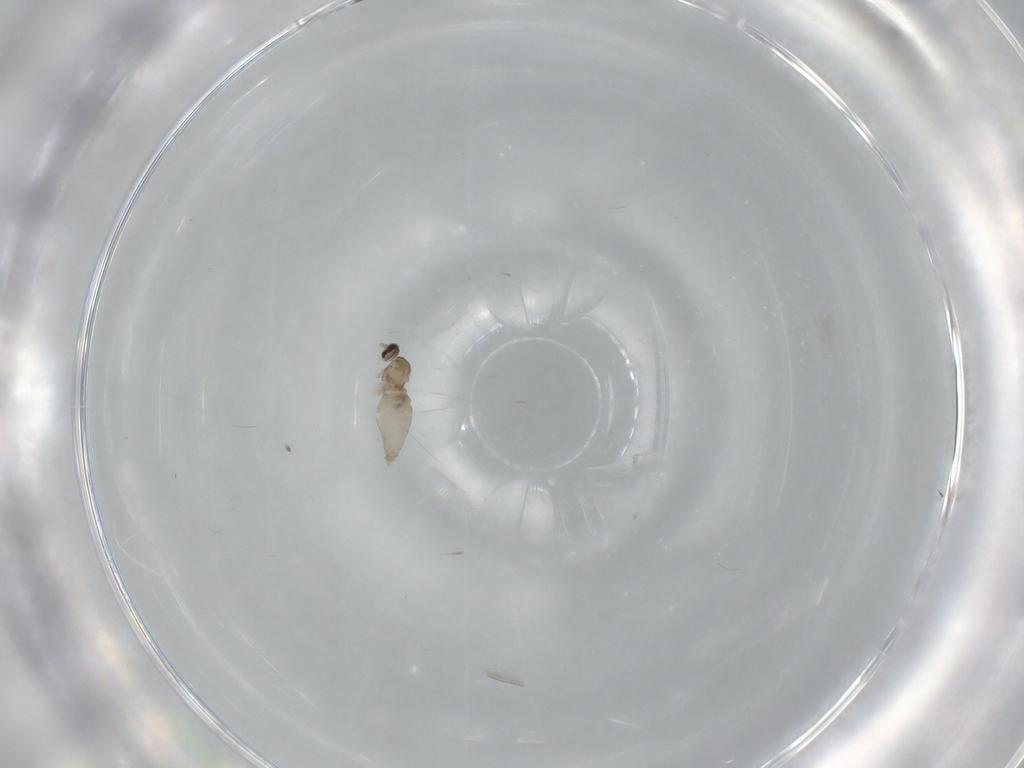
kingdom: Animalia
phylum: Arthropoda
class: Insecta
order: Diptera
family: Cecidomyiidae
